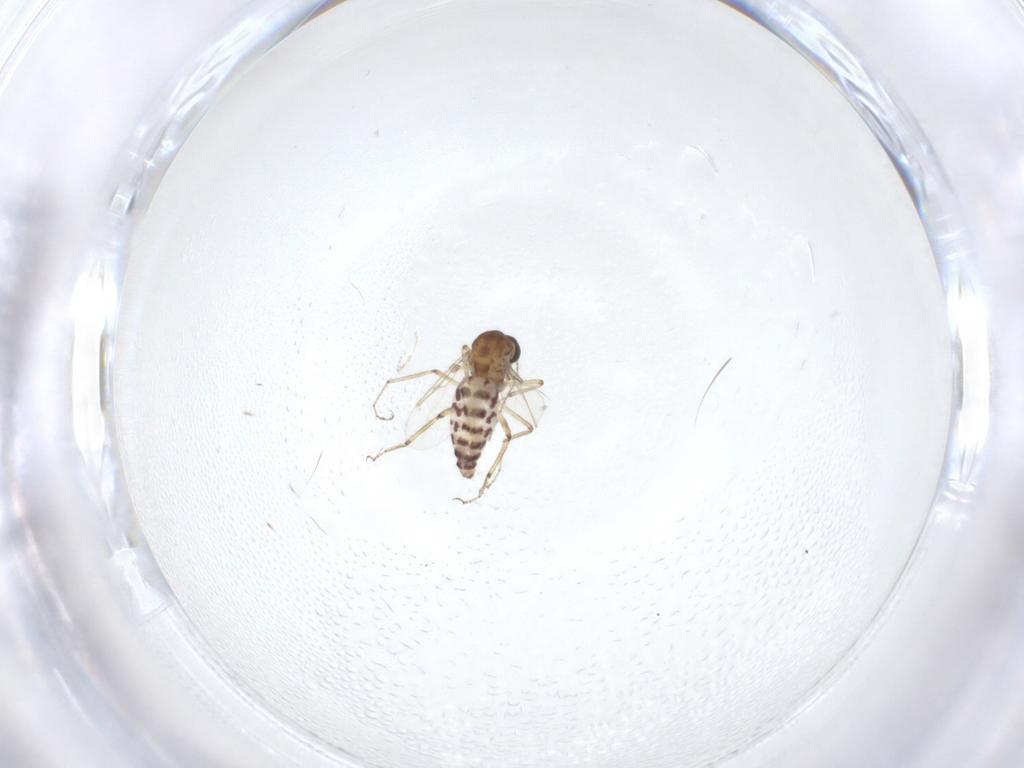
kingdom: Animalia
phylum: Arthropoda
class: Insecta
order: Diptera
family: Ceratopogonidae
